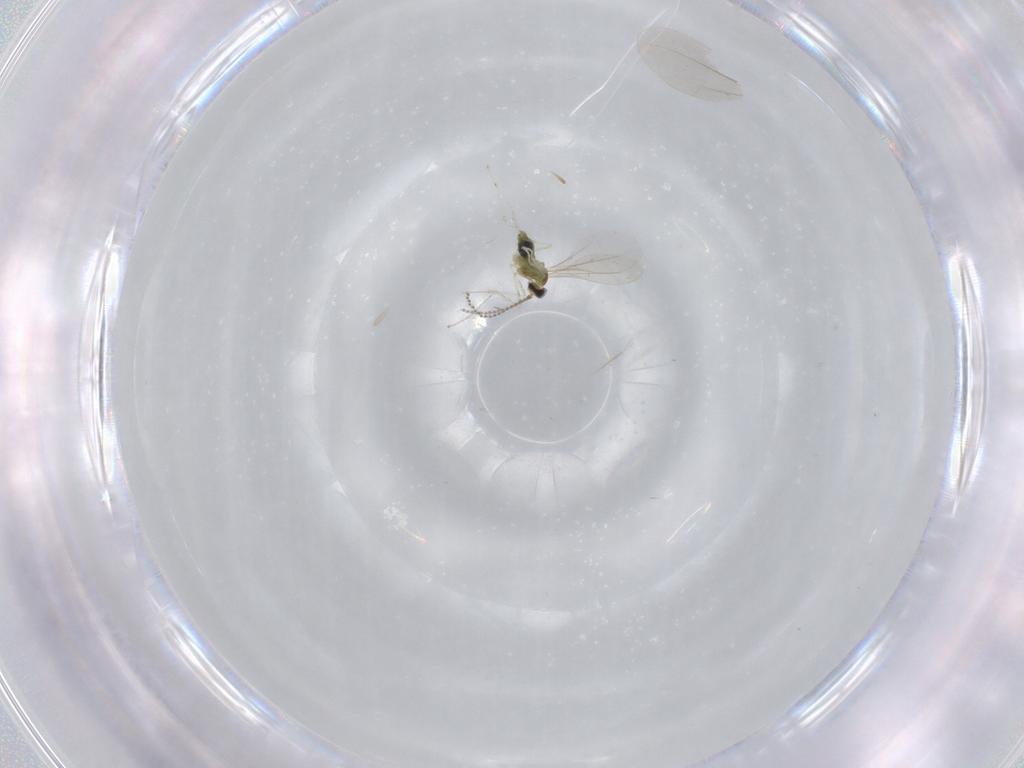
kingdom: Animalia
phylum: Arthropoda
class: Insecta
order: Diptera
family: Cecidomyiidae
